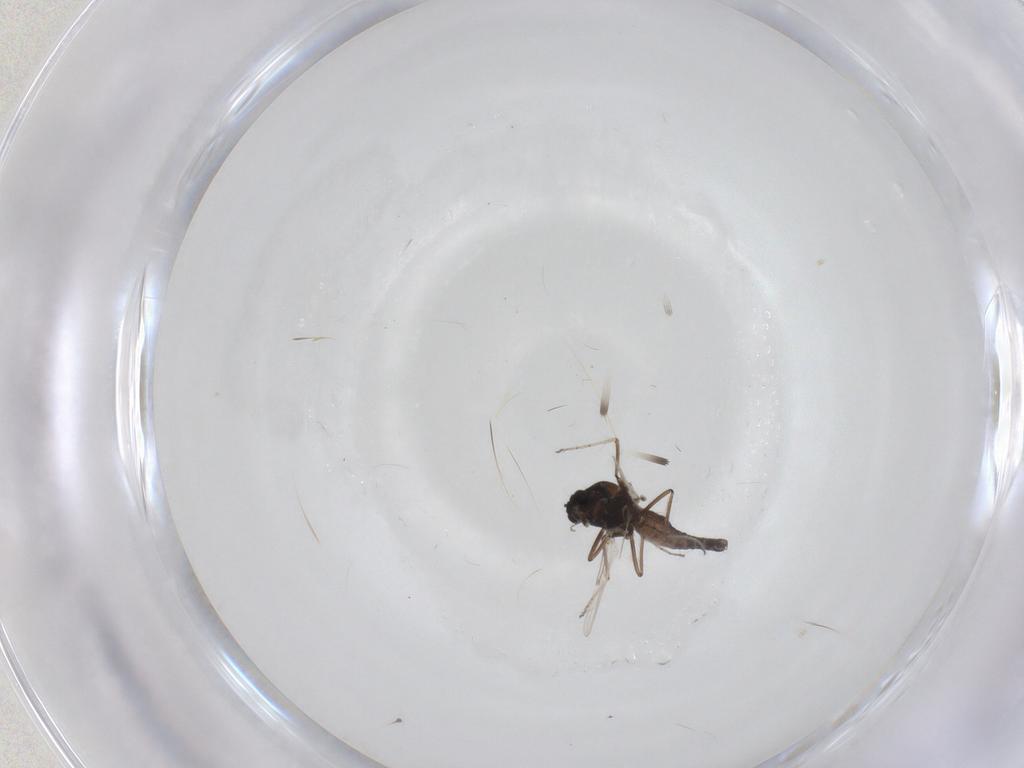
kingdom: Animalia
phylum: Arthropoda
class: Insecta
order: Diptera
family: Ceratopogonidae
